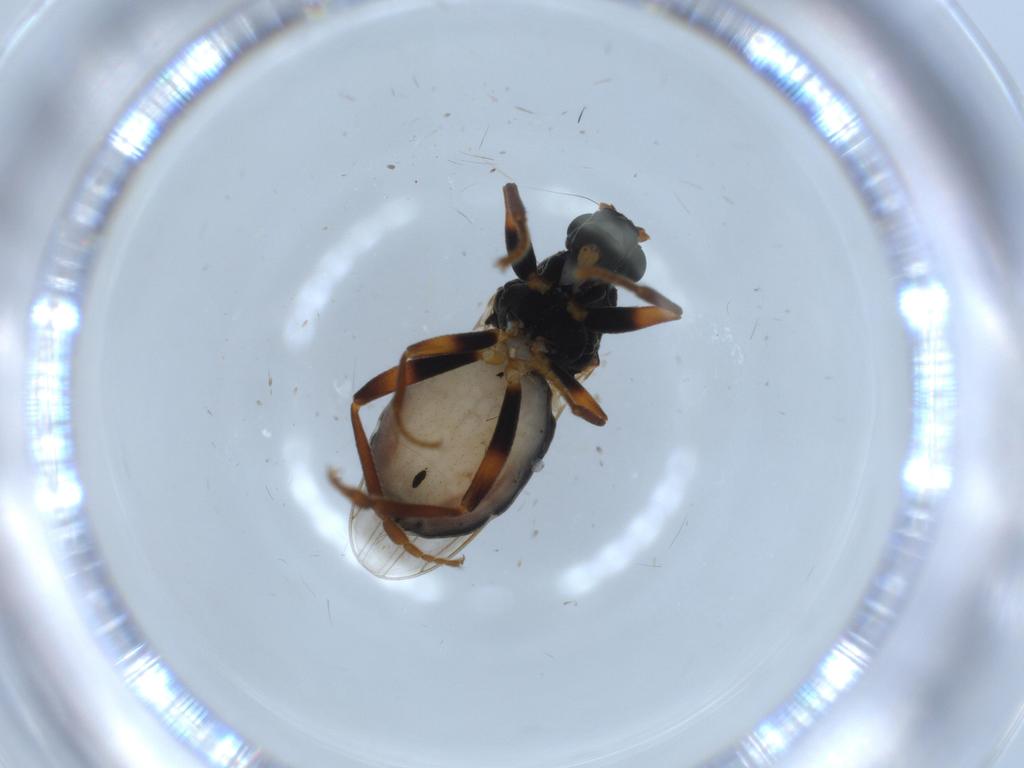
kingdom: Animalia
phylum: Arthropoda
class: Insecta
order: Diptera
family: Sphaeroceridae
